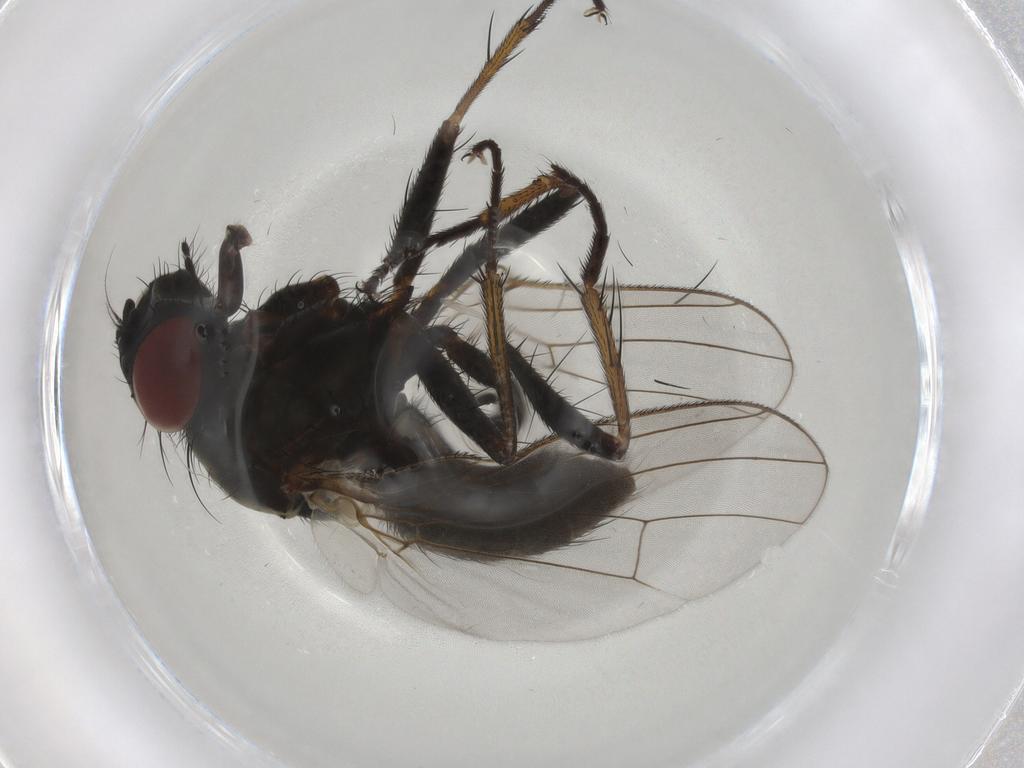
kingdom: Animalia
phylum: Arthropoda
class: Insecta
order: Diptera
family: Muscidae
